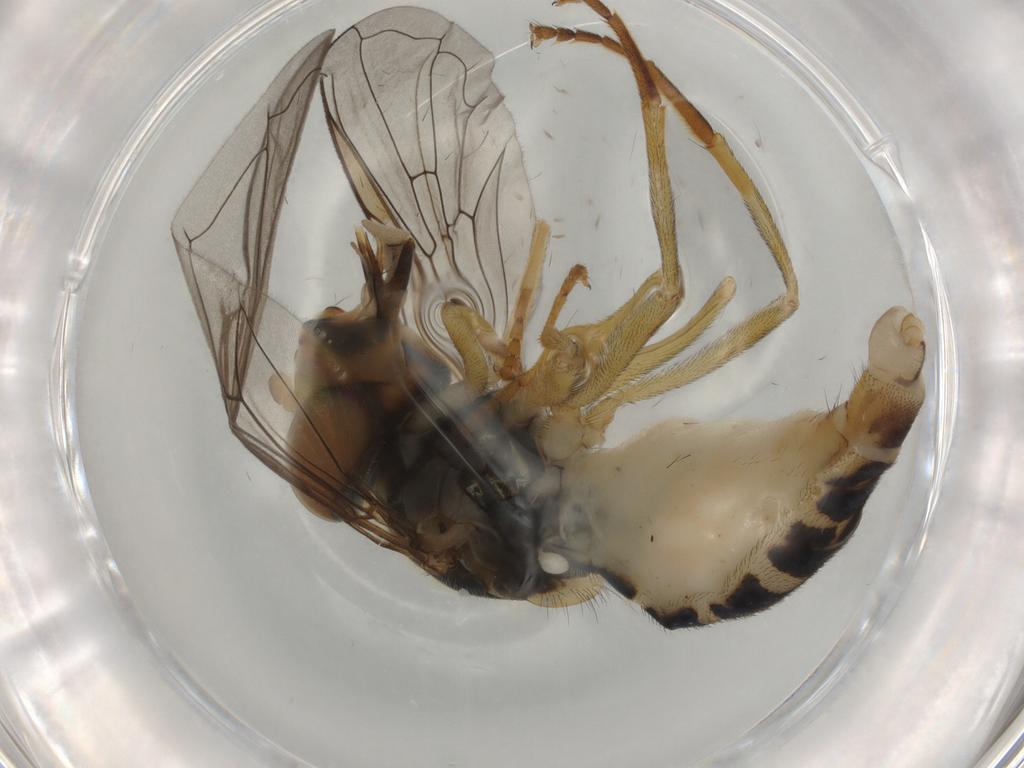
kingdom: Animalia
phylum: Arthropoda
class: Insecta
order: Diptera
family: Syrphidae
